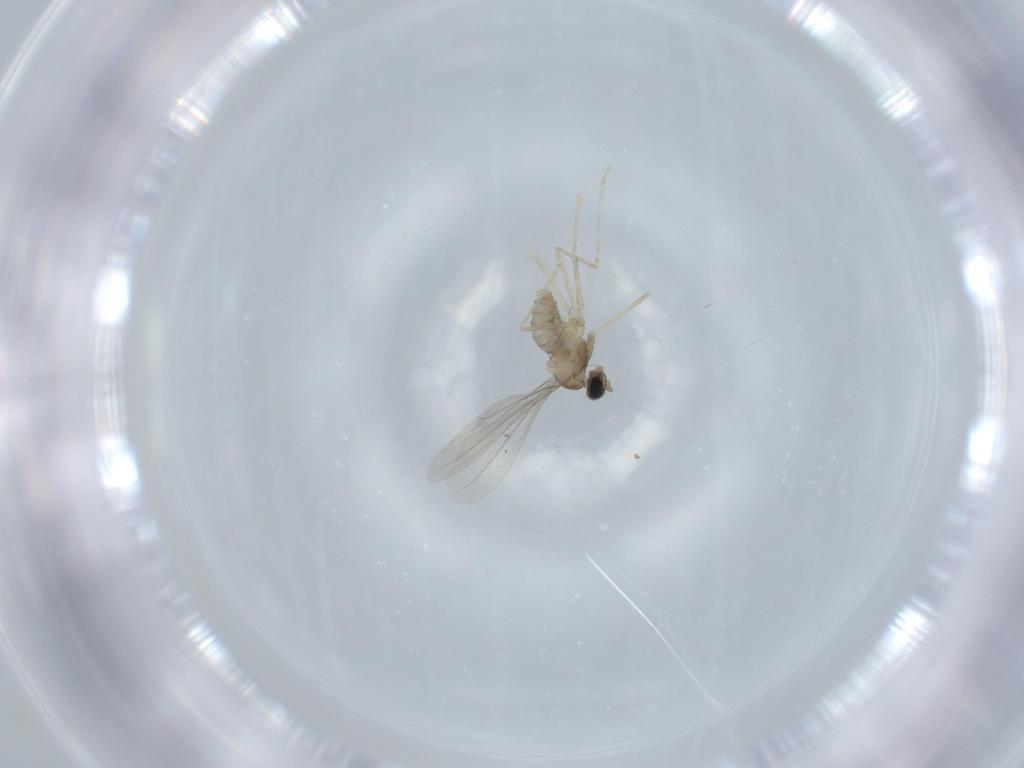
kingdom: Animalia
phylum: Arthropoda
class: Insecta
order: Diptera
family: Cecidomyiidae
